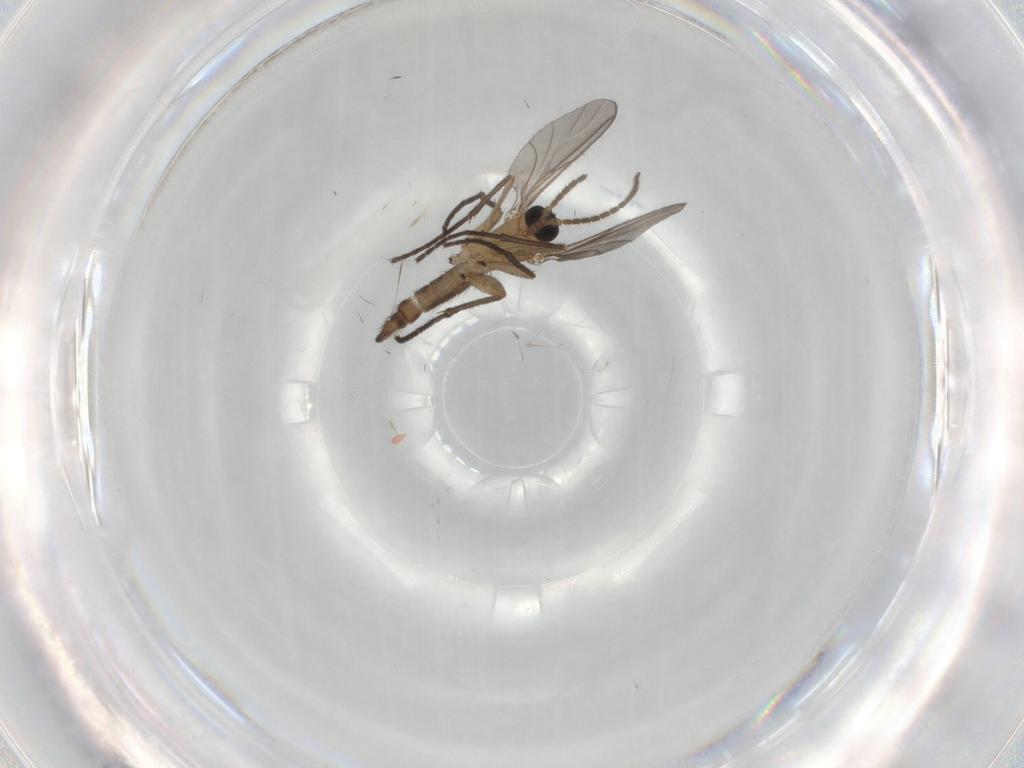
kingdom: Animalia
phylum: Arthropoda
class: Insecta
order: Diptera
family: Sciaridae
